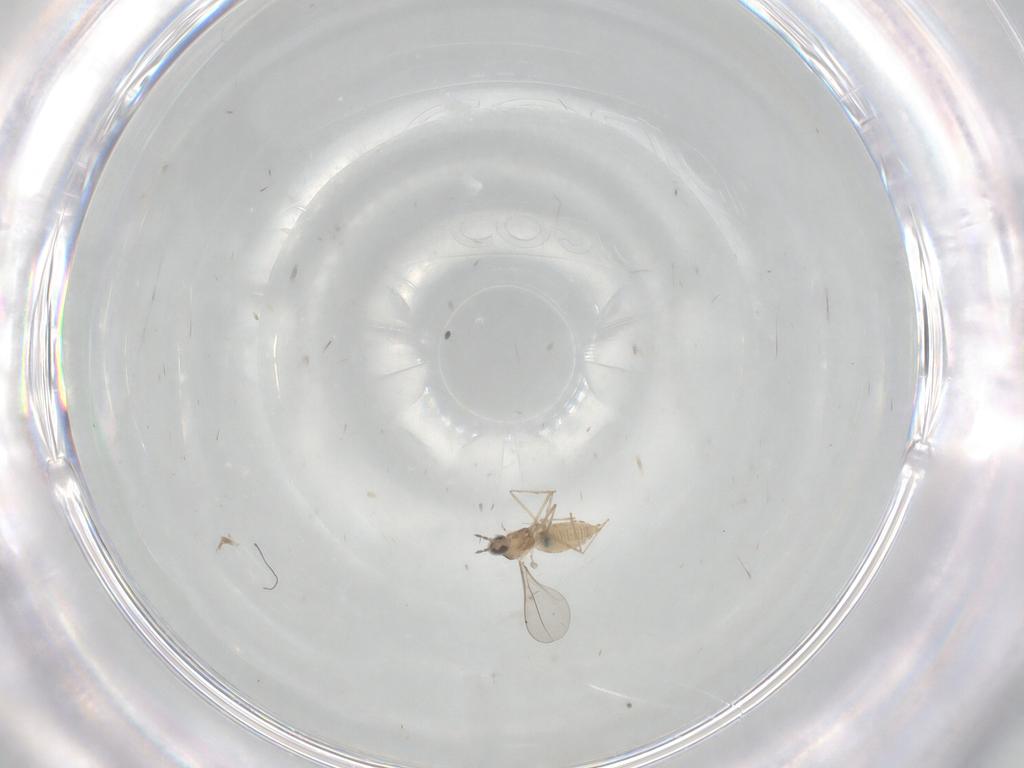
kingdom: Animalia
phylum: Arthropoda
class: Insecta
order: Diptera
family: Cecidomyiidae
